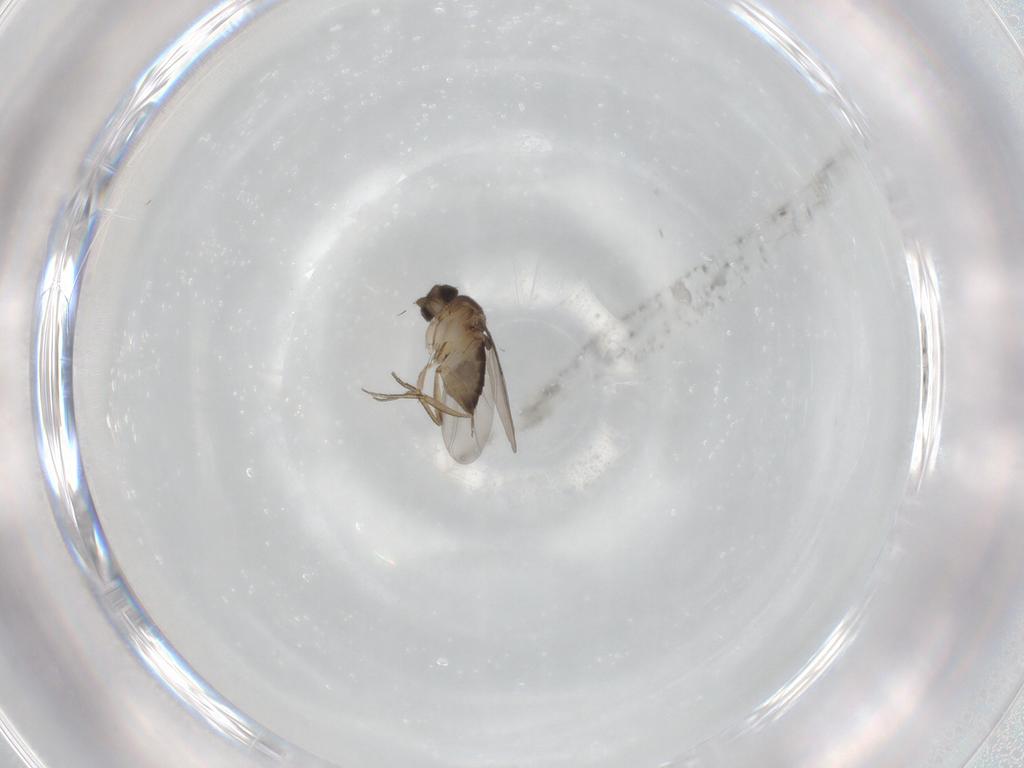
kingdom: Animalia
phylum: Arthropoda
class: Insecta
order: Diptera
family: Phoridae
